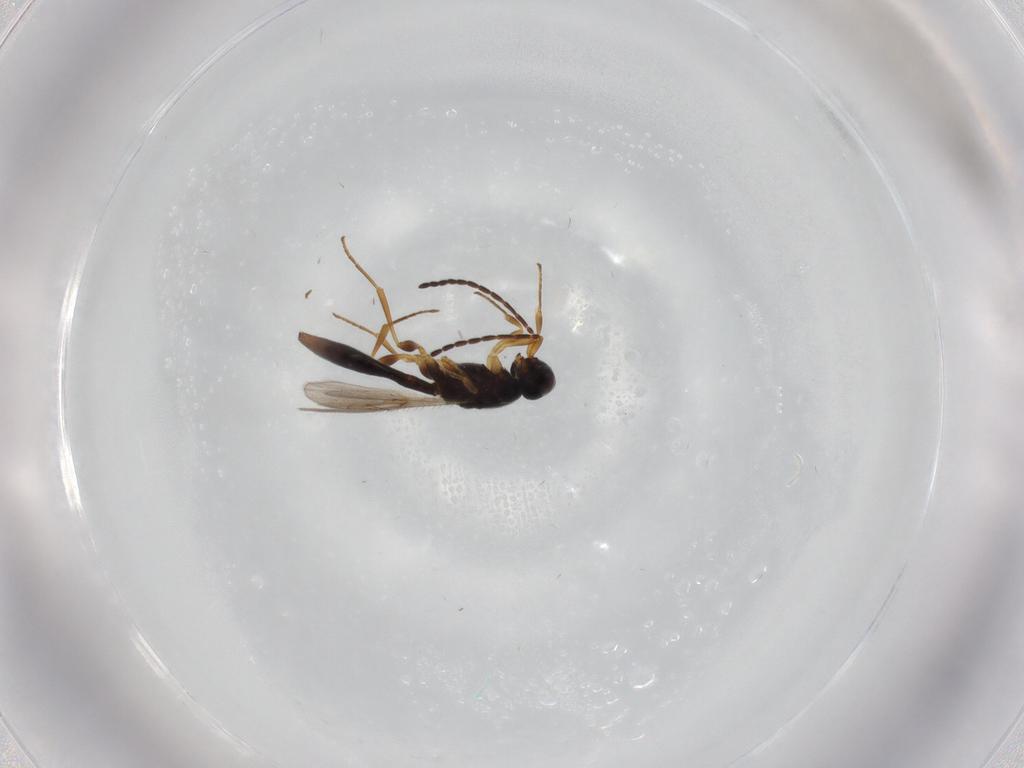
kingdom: Animalia
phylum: Arthropoda
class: Insecta
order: Hymenoptera
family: Scelionidae
